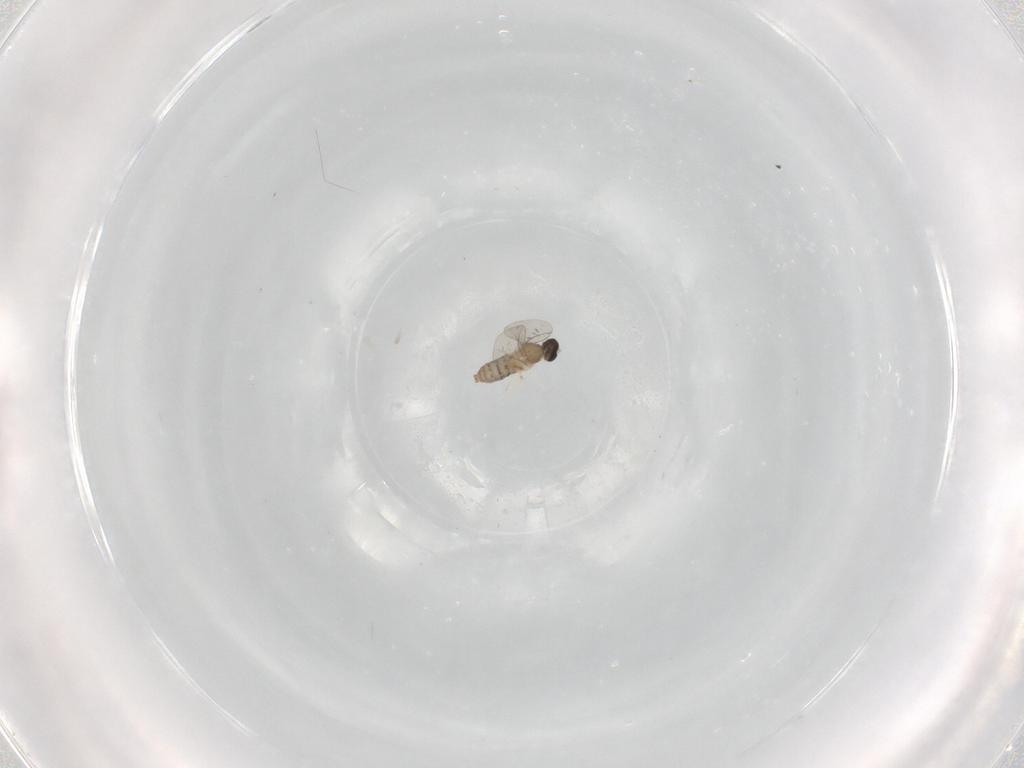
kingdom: Animalia
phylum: Arthropoda
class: Insecta
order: Diptera
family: Cecidomyiidae
